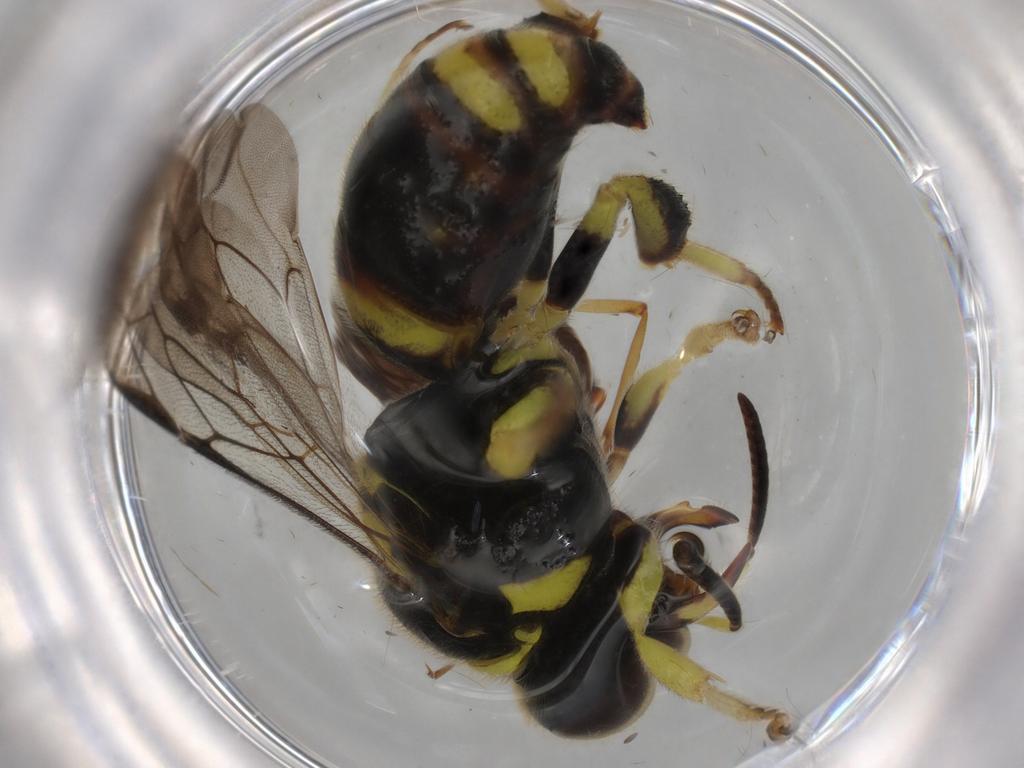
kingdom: Animalia
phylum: Arthropoda
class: Insecta
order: Hymenoptera
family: Crabronidae
